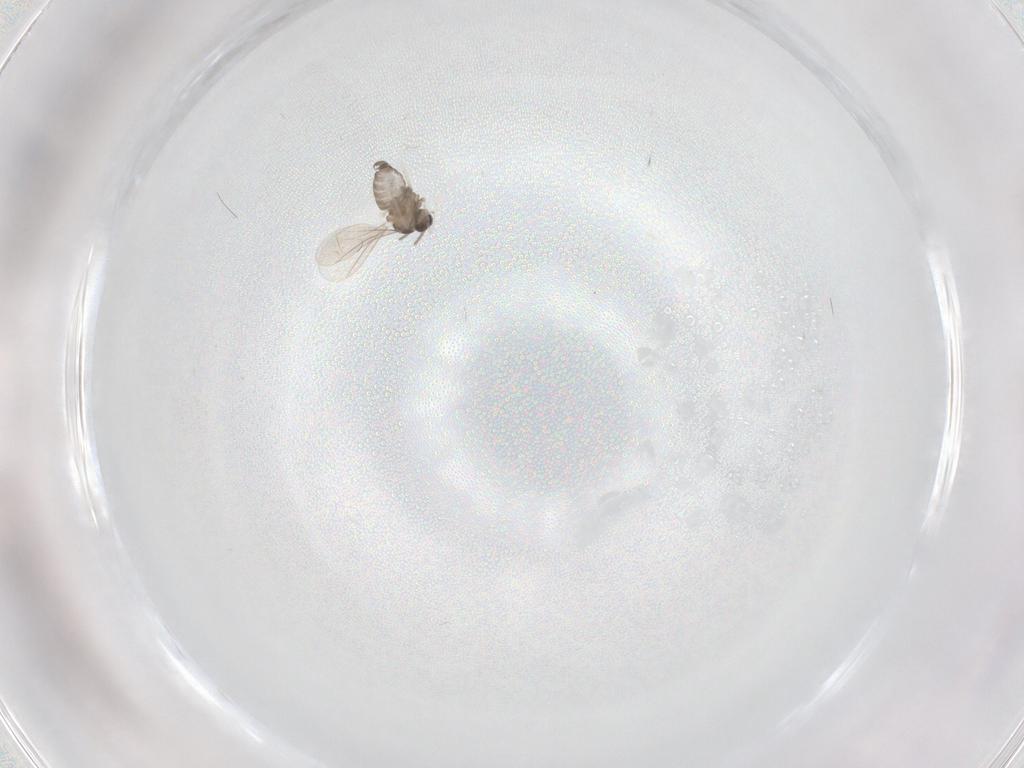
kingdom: Animalia
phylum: Arthropoda
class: Insecta
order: Diptera
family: Cecidomyiidae
